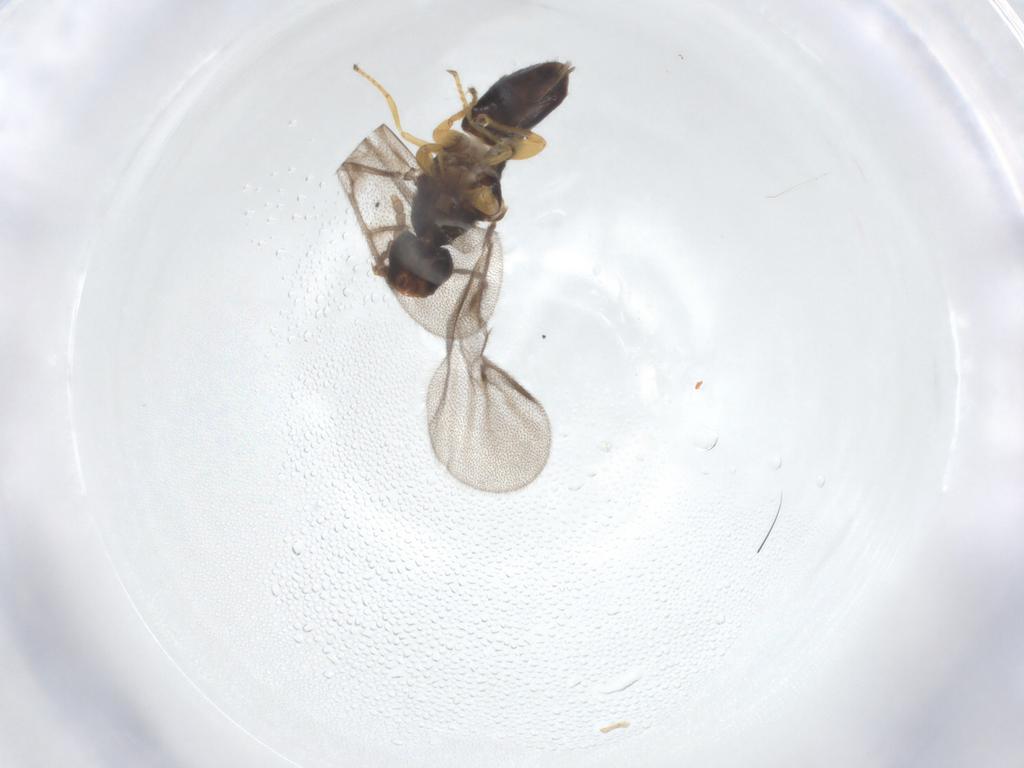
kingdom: Animalia
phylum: Arthropoda
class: Insecta
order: Hymenoptera
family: Agaonidae
